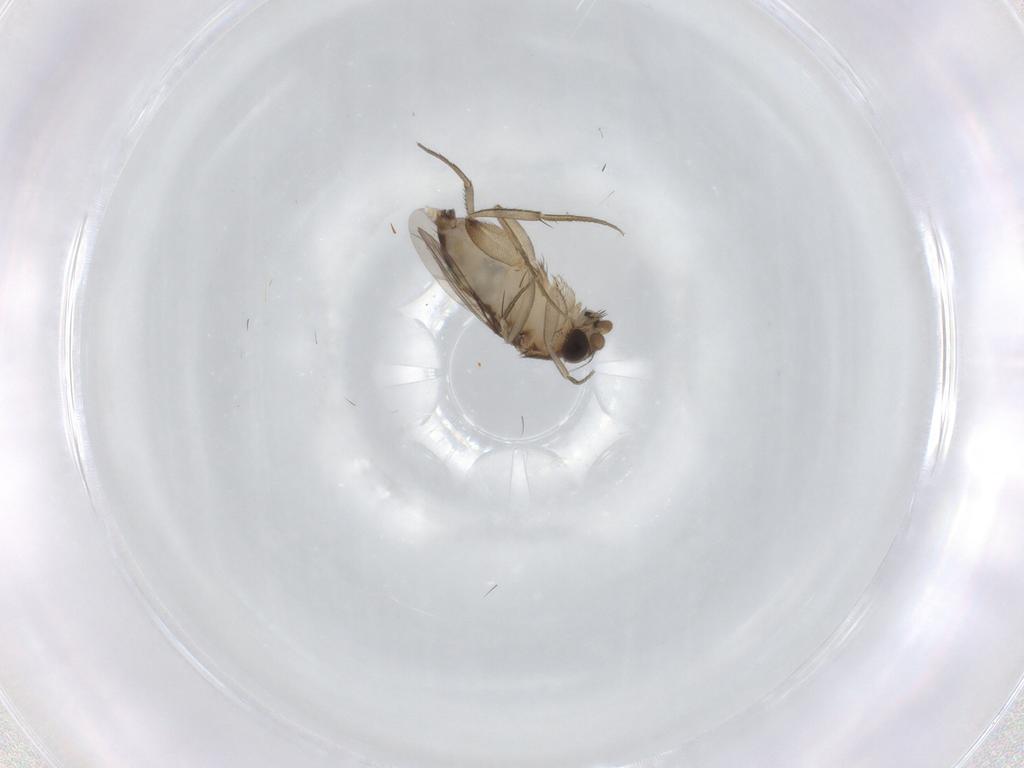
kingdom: Animalia
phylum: Arthropoda
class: Insecta
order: Diptera
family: Phoridae
